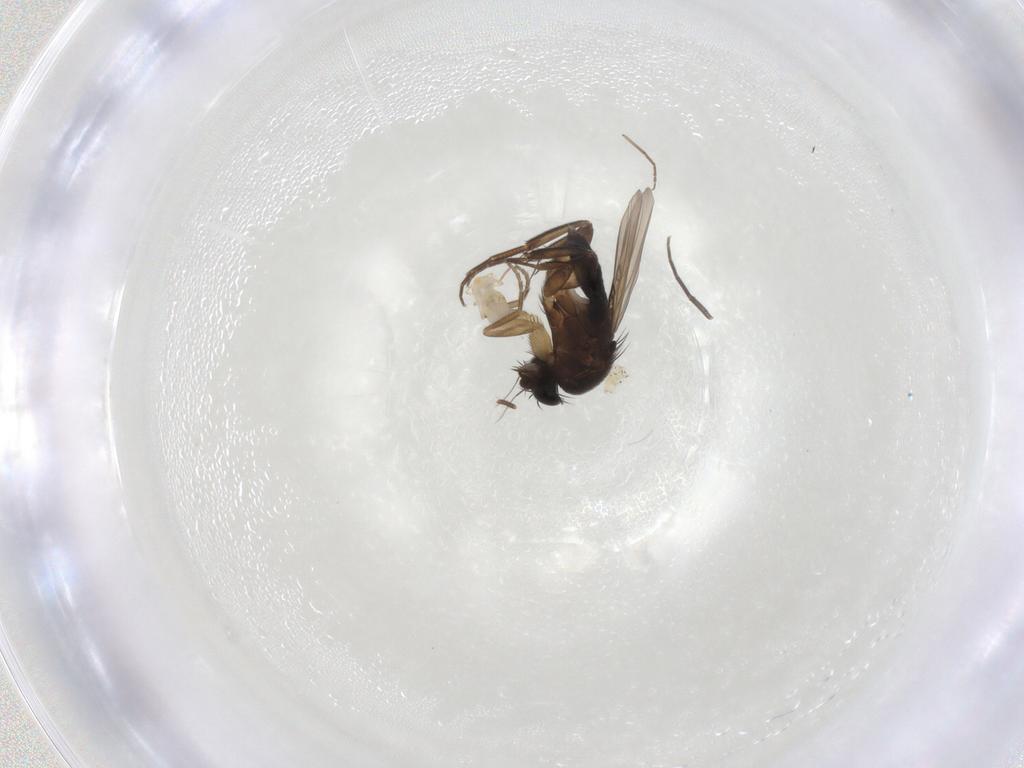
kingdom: Animalia
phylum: Arthropoda
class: Insecta
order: Diptera
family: Phoridae
